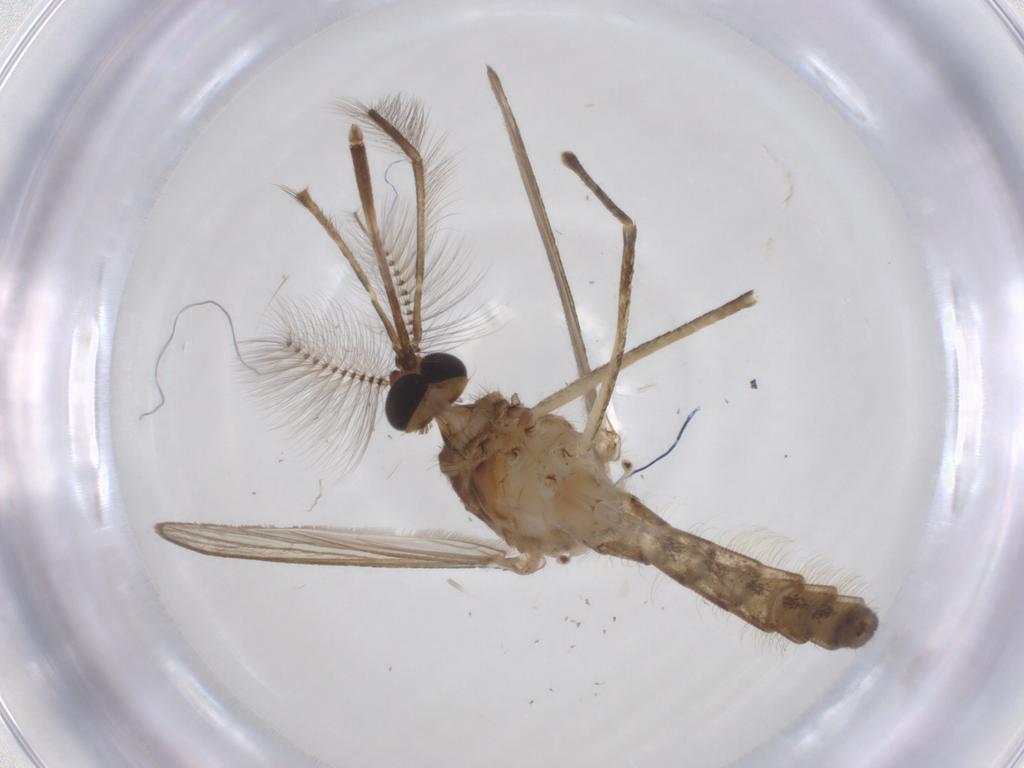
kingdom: Animalia
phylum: Arthropoda
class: Insecta
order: Diptera
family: Culicidae
